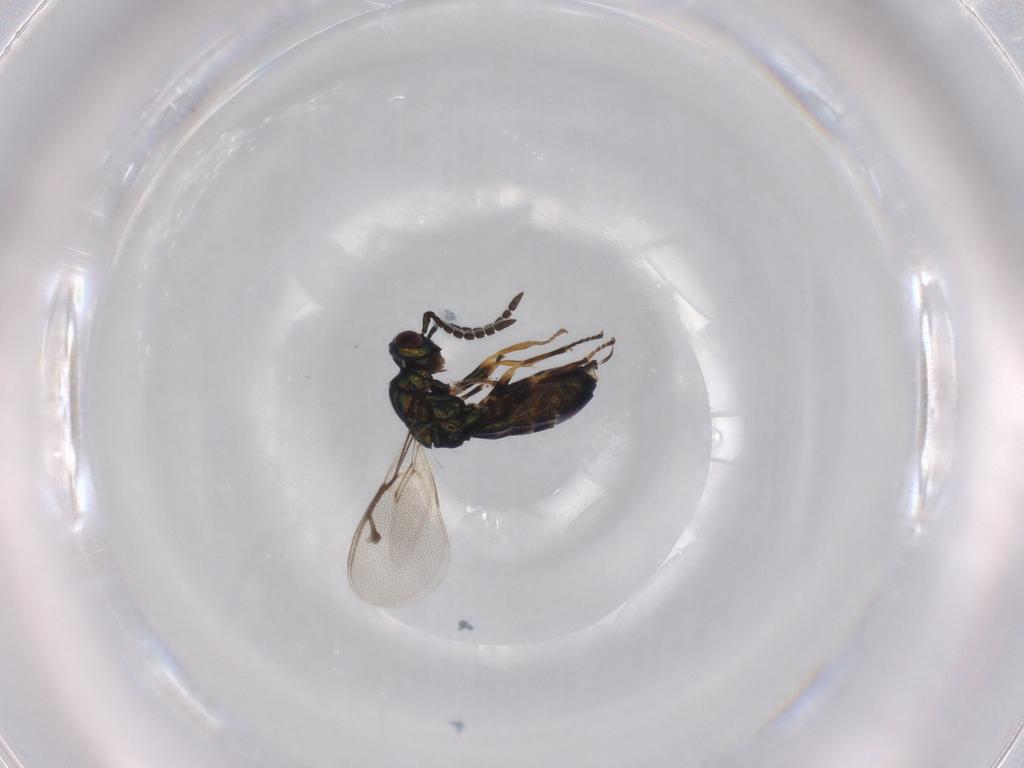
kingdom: Animalia
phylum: Arthropoda
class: Insecta
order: Hymenoptera
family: Pteromalidae
